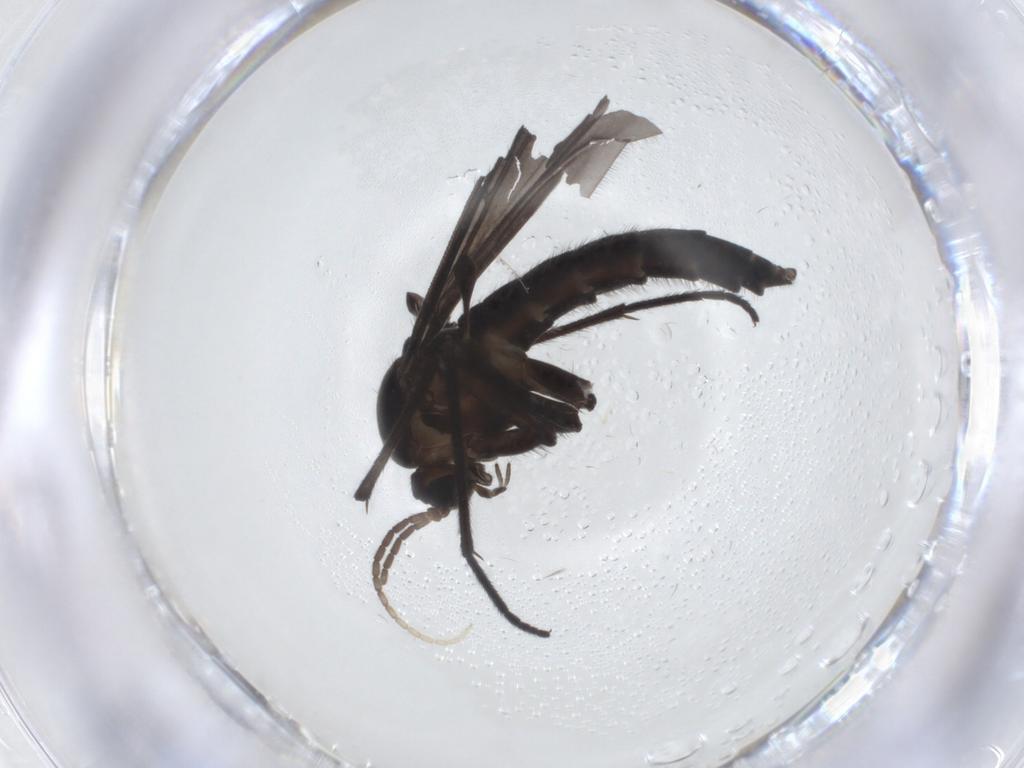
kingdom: Animalia
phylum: Arthropoda
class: Insecta
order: Diptera
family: Sciaridae
